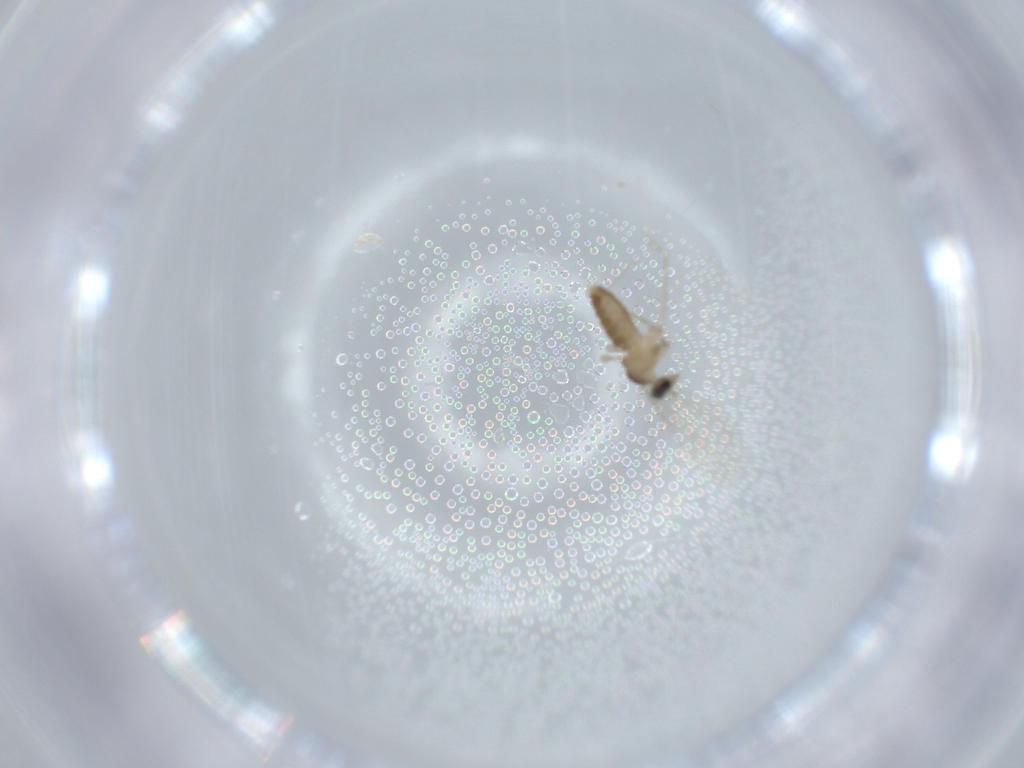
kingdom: Animalia
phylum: Arthropoda
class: Insecta
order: Diptera
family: Cecidomyiidae
